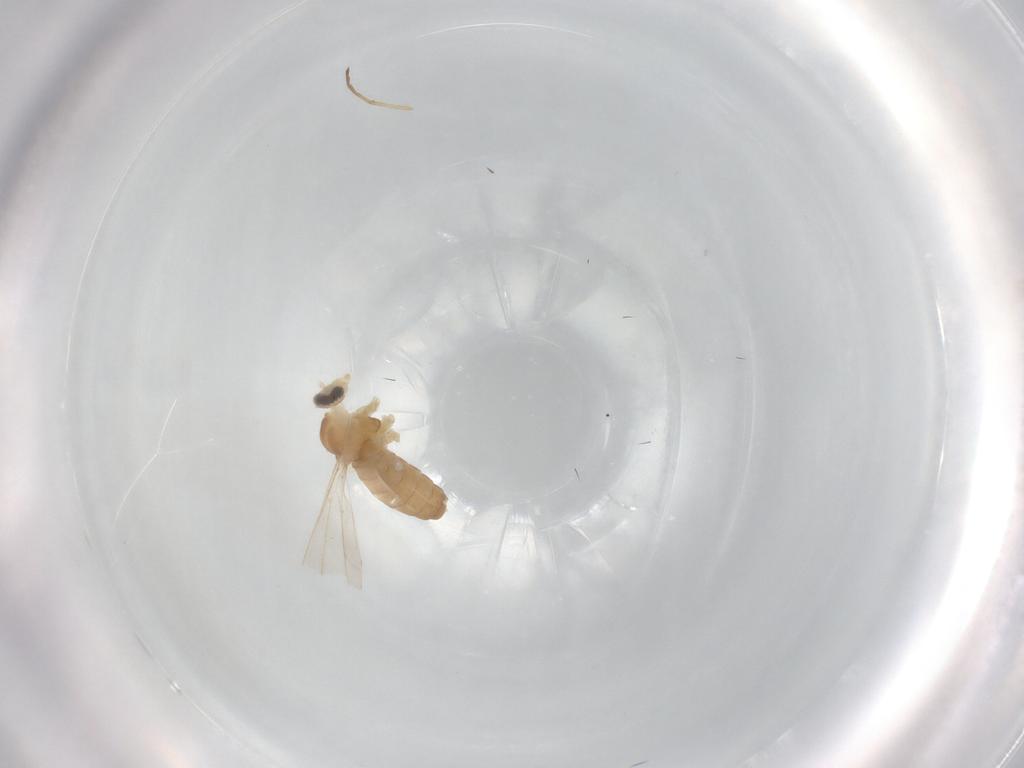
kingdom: Animalia
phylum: Arthropoda
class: Insecta
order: Diptera
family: Cecidomyiidae
